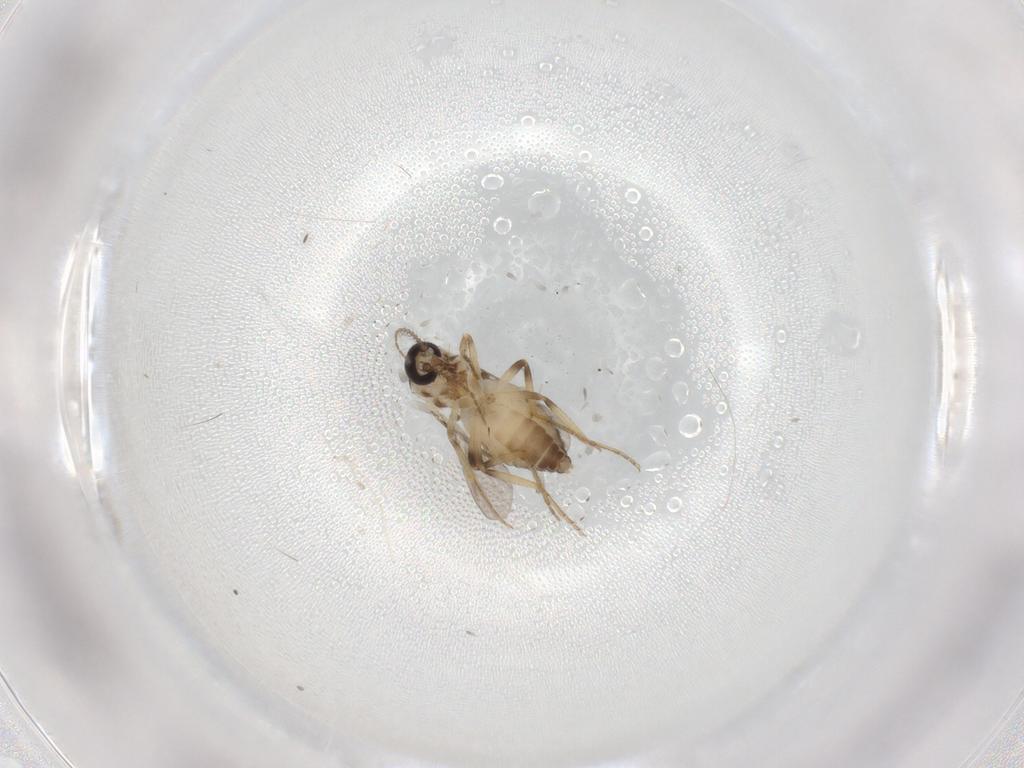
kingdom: Animalia
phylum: Arthropoda
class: Insecta
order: Diptera
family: Ceratopogonidae
